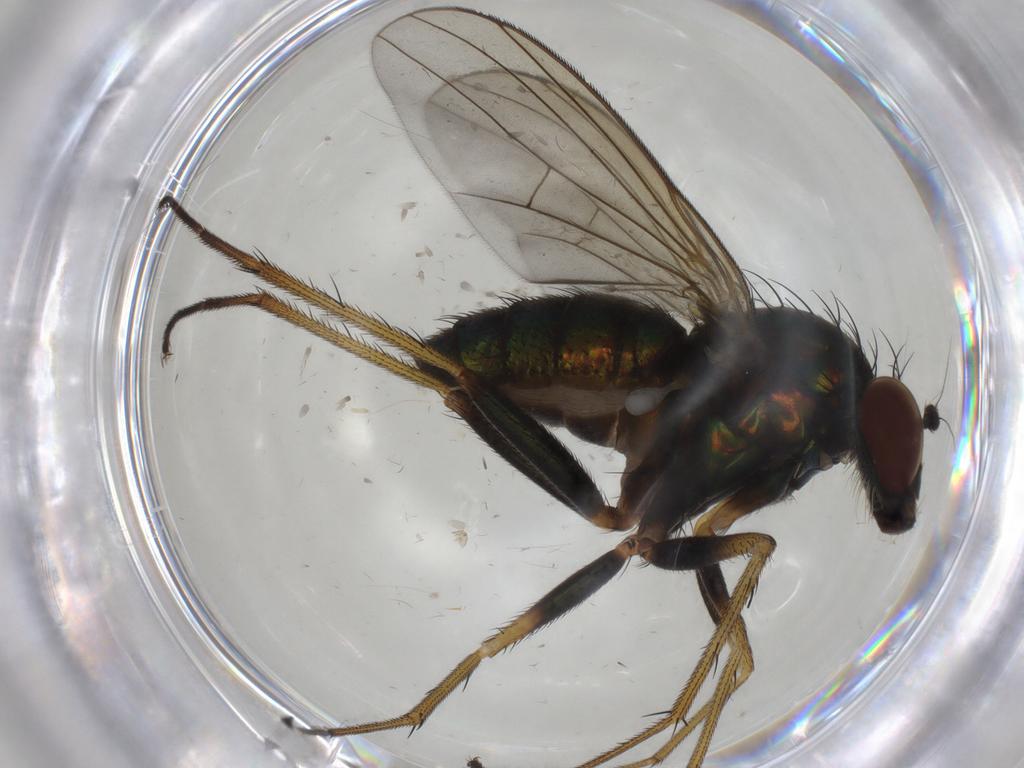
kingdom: Animalia
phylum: Arthropoda
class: Insecta
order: Diptera
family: Dolichopodidae
